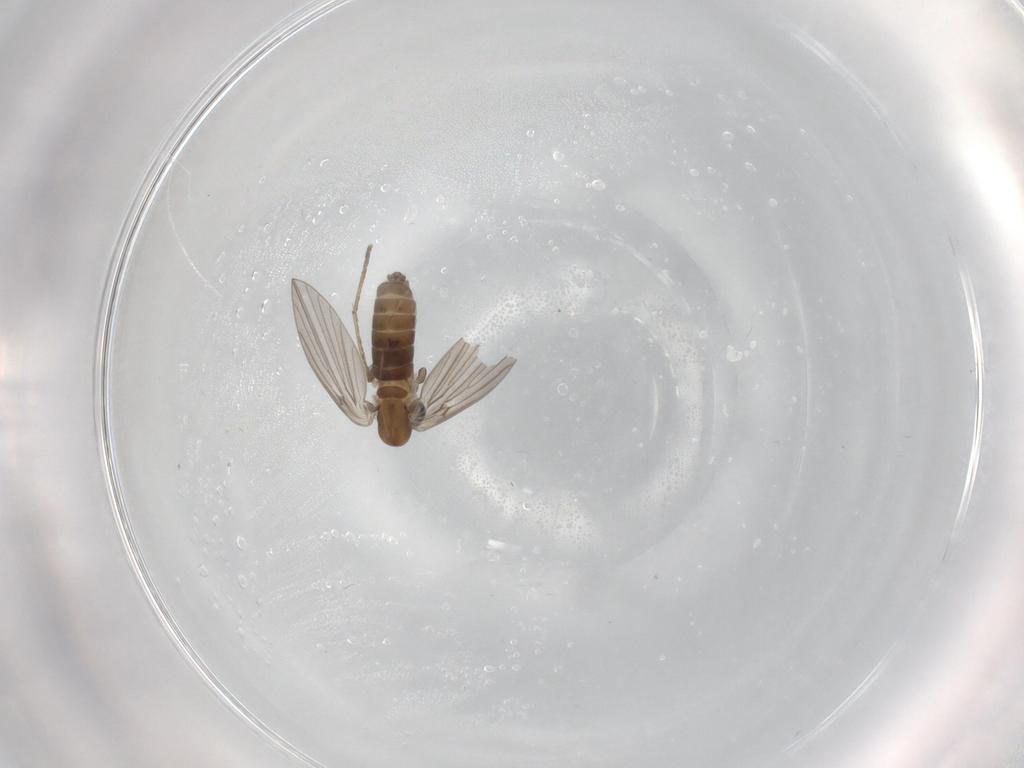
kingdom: Animalia
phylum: Arthropoda
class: Insecta
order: Diptera
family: Psychodidae
